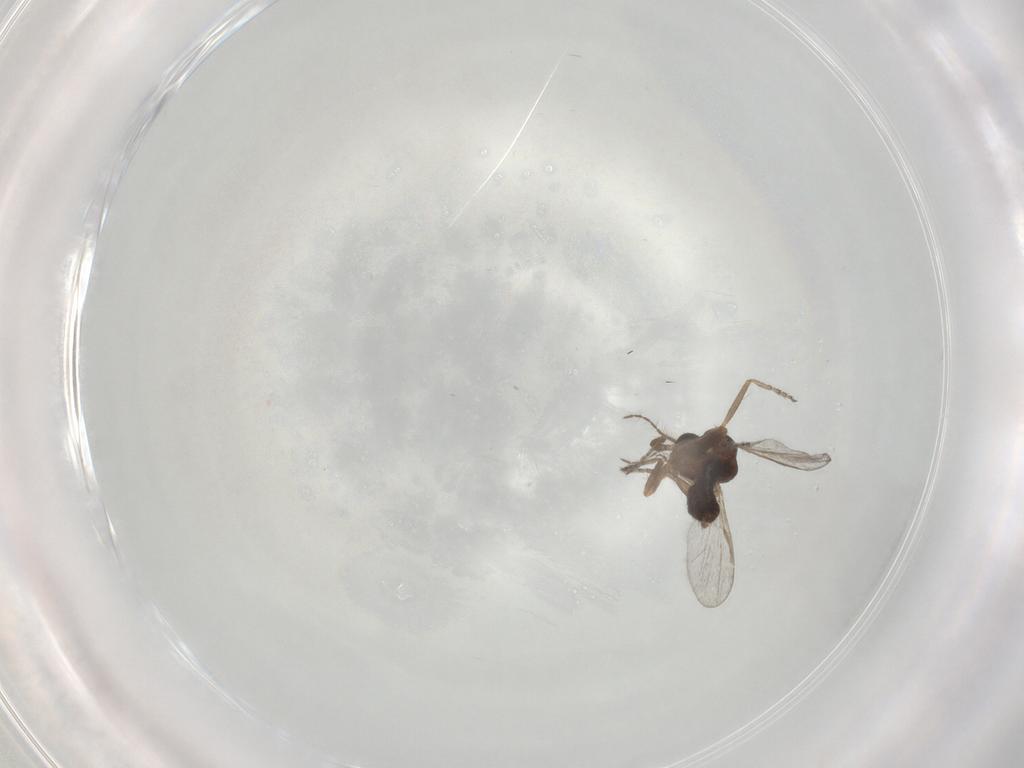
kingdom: Animalia
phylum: Arthropoda
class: Insecta
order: Diptera
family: Ceratopogonidae
